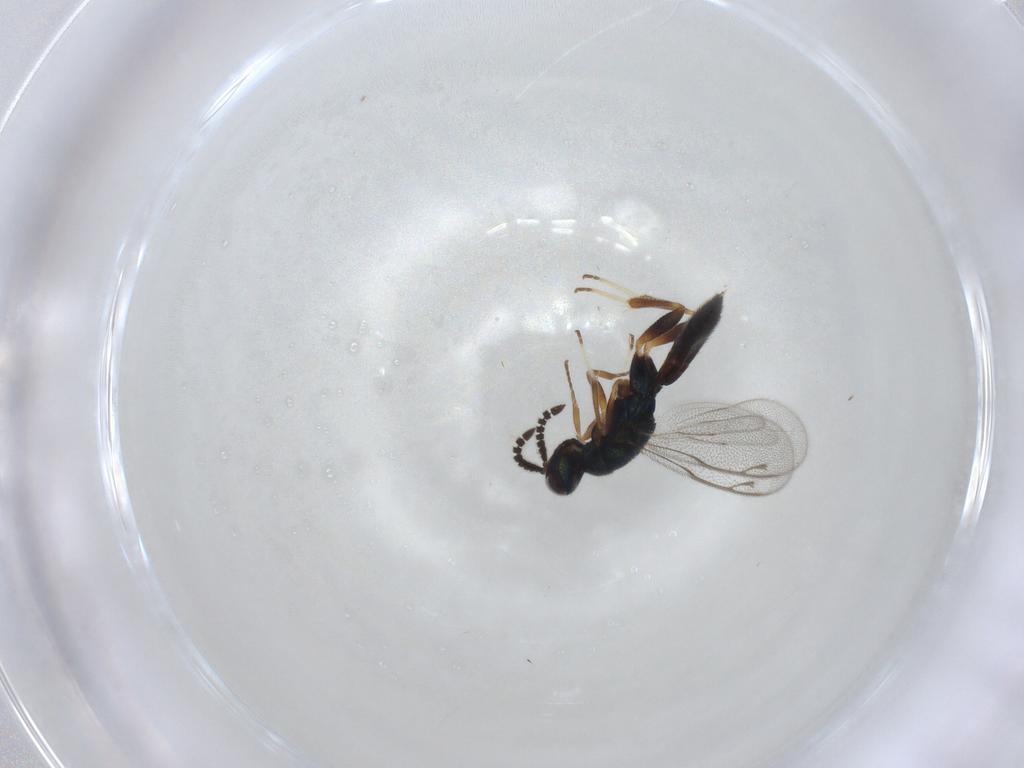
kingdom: Animalia
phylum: Arthropoda
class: Insecta
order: Hymenoptera
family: Cleonyminae
